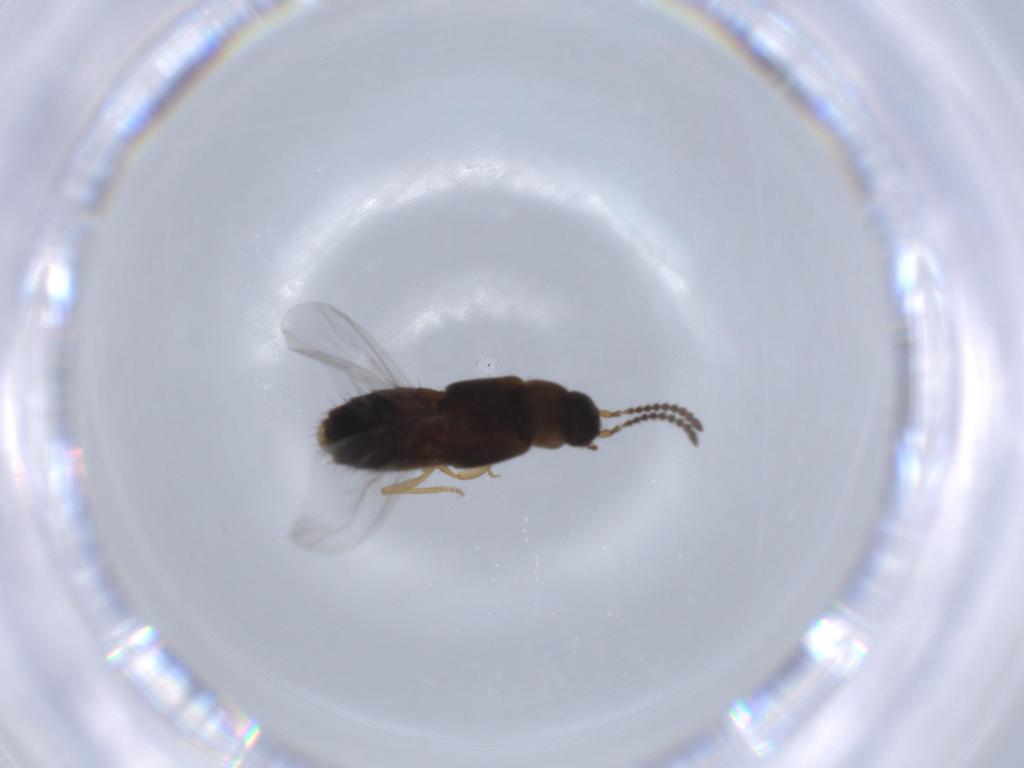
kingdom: Animalia
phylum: Arthropoda
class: Insecta
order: Coleoptera
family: Staphylinidae
